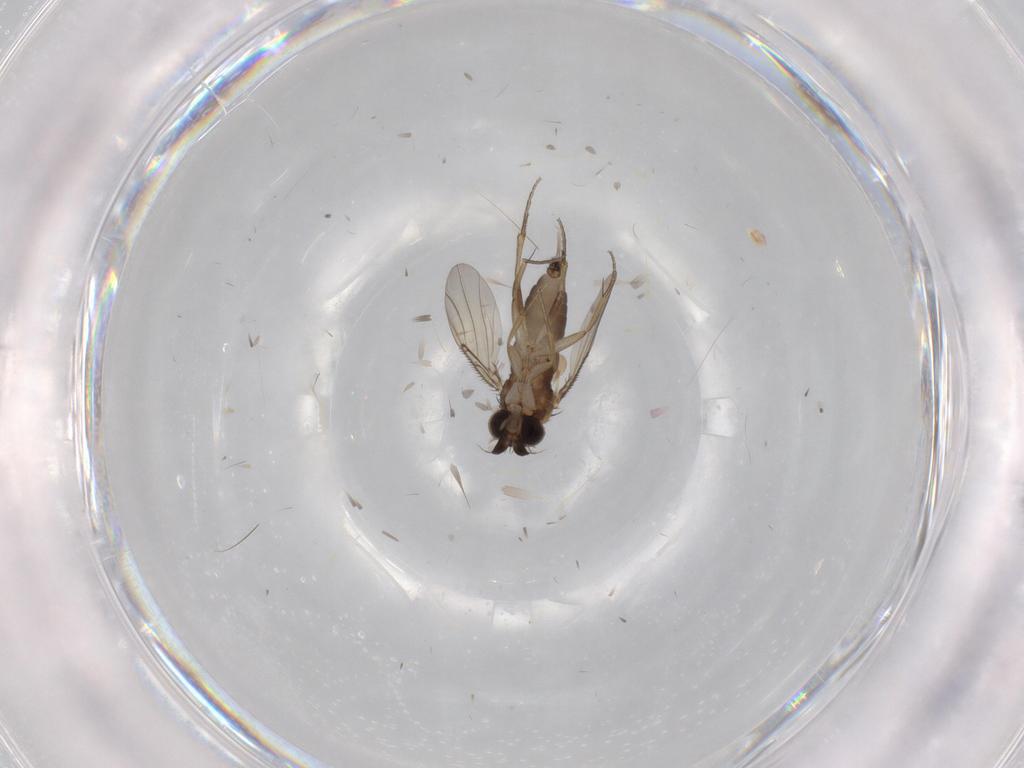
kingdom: Animalia
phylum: Arthropoda
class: Insecta
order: Diptera
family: Phoridae
